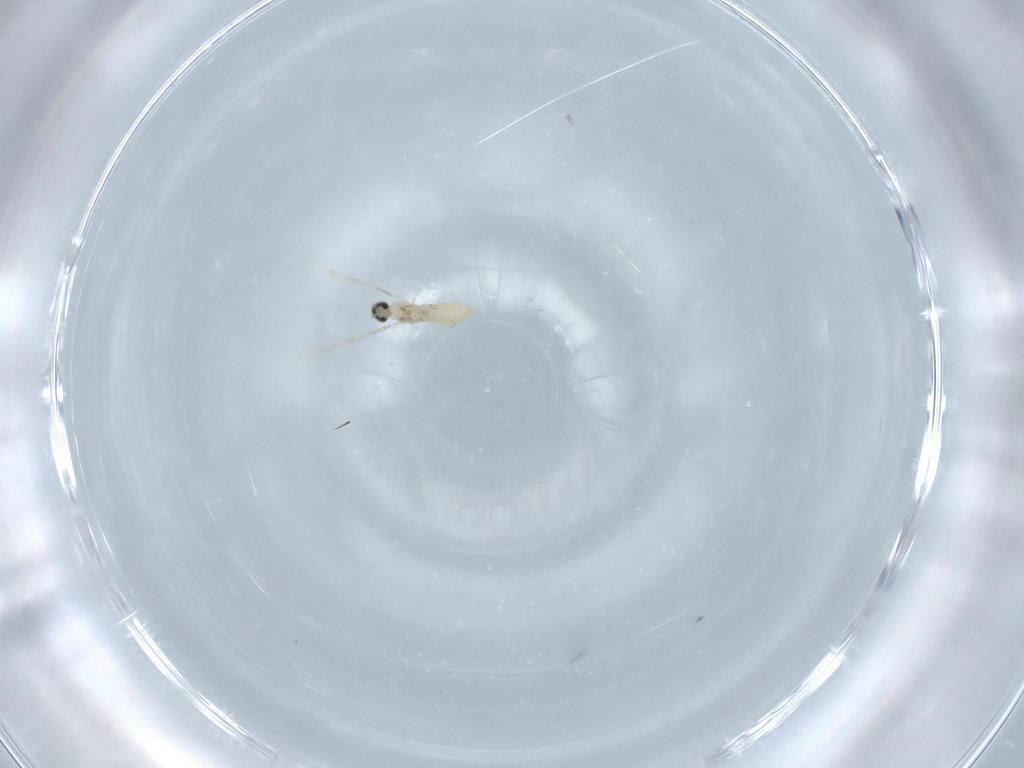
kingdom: Animalia
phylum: Arthropoda
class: Insecta
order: Diptera
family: Cecidomyiidae
